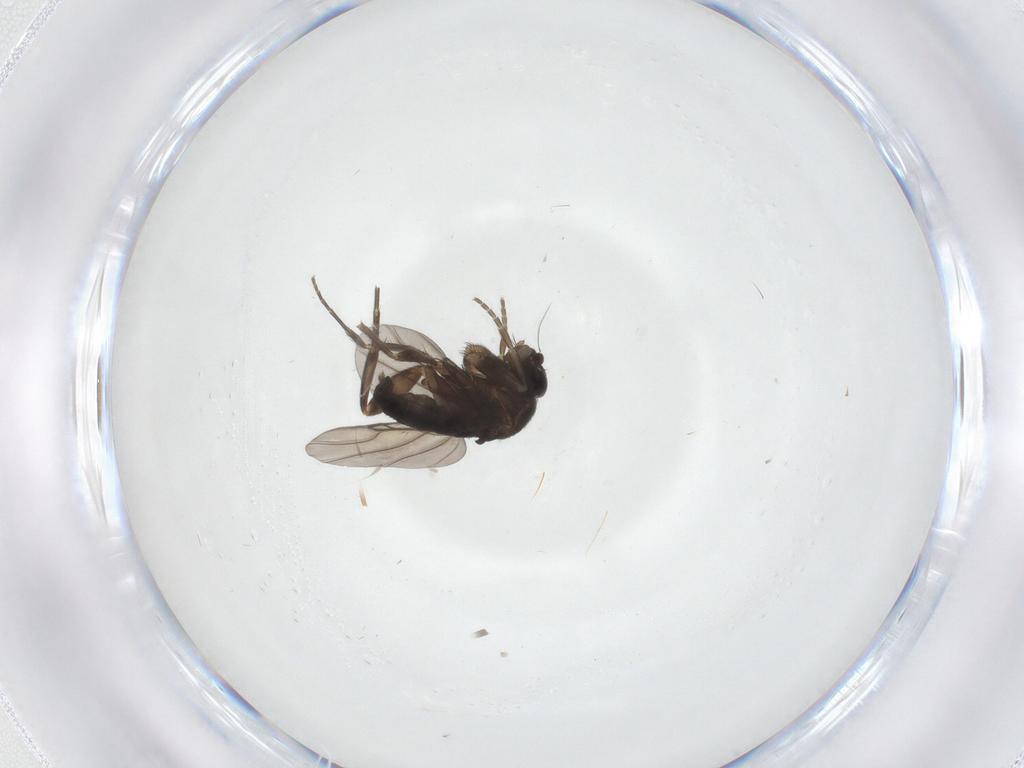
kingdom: Animalia
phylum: Arthropoda
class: Insecta
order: Diptera
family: Phoridae
